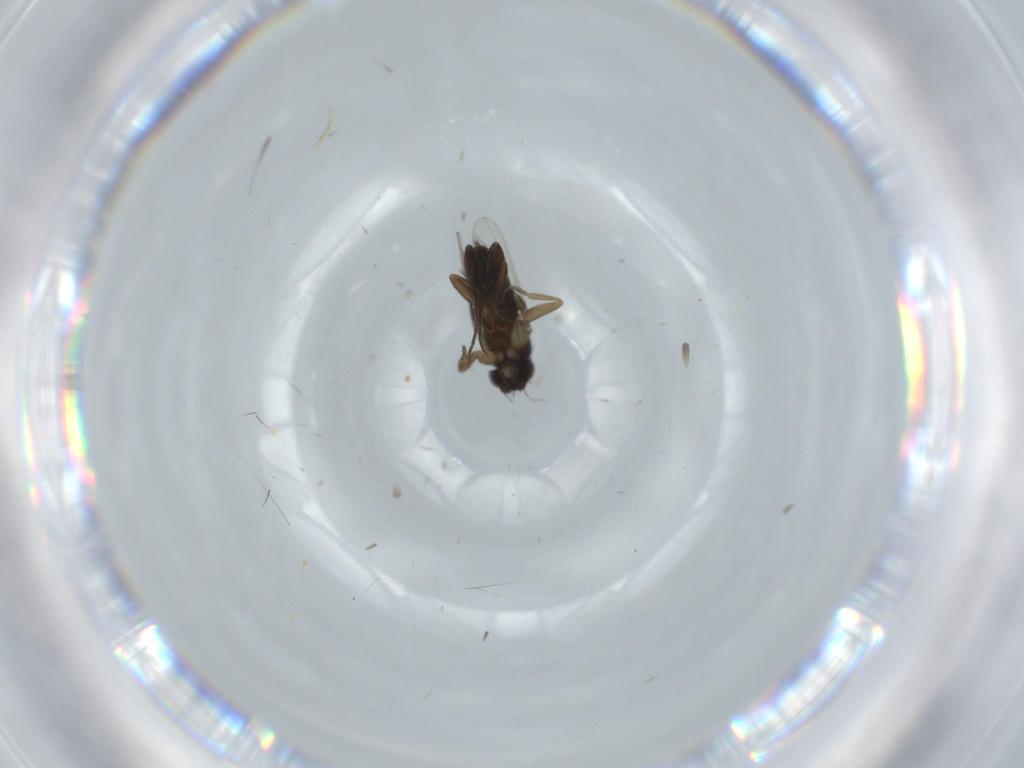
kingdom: Animalia
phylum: Arthropoda
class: Insecta
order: Diptera
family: Phoridae
